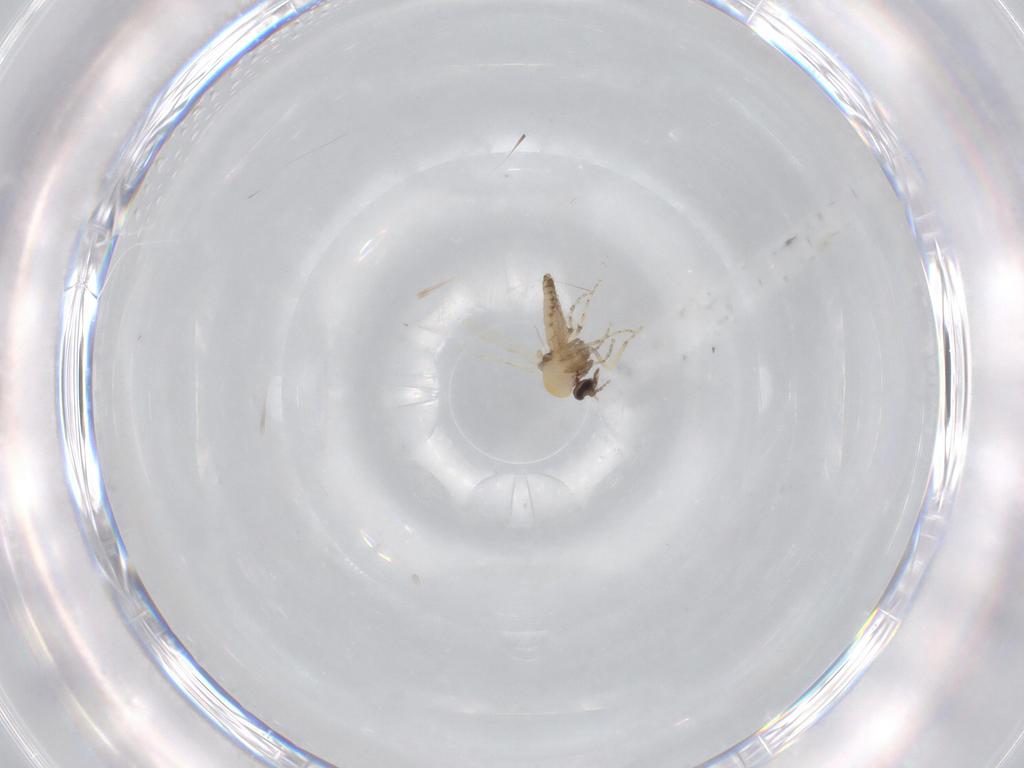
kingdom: Animalia
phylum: Arthropoda
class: Insecta
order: Diptera
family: Ceratopogonidae
